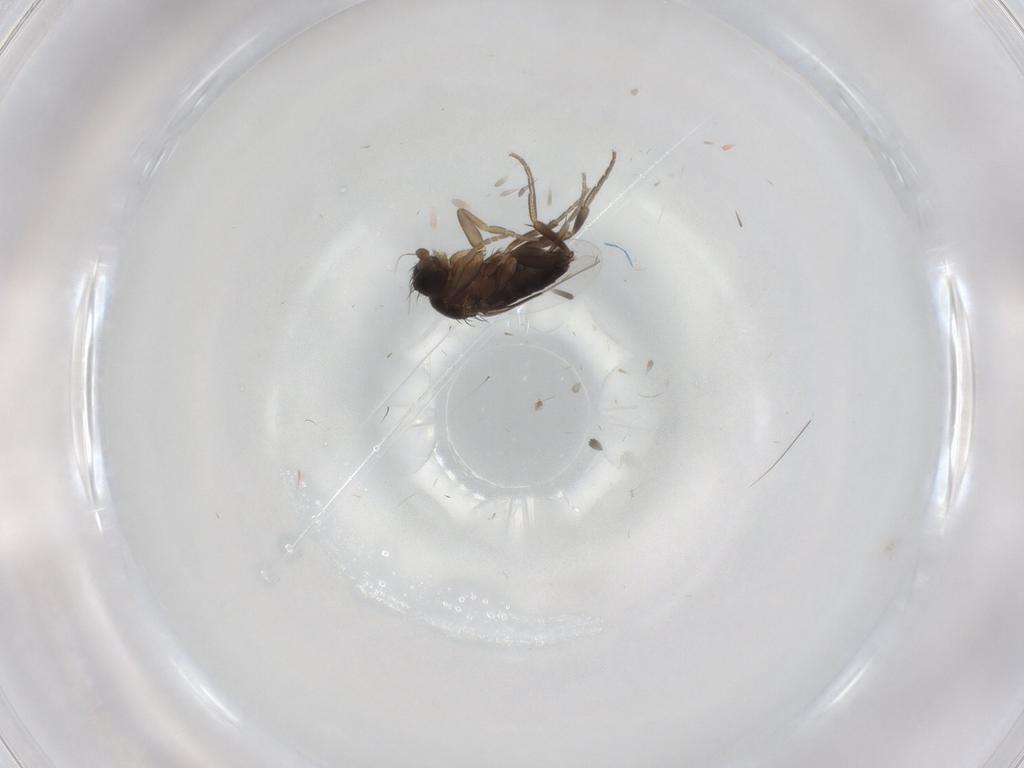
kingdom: Animalia
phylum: Arthropoda
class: Insecta
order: Diptera
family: Phoridae
